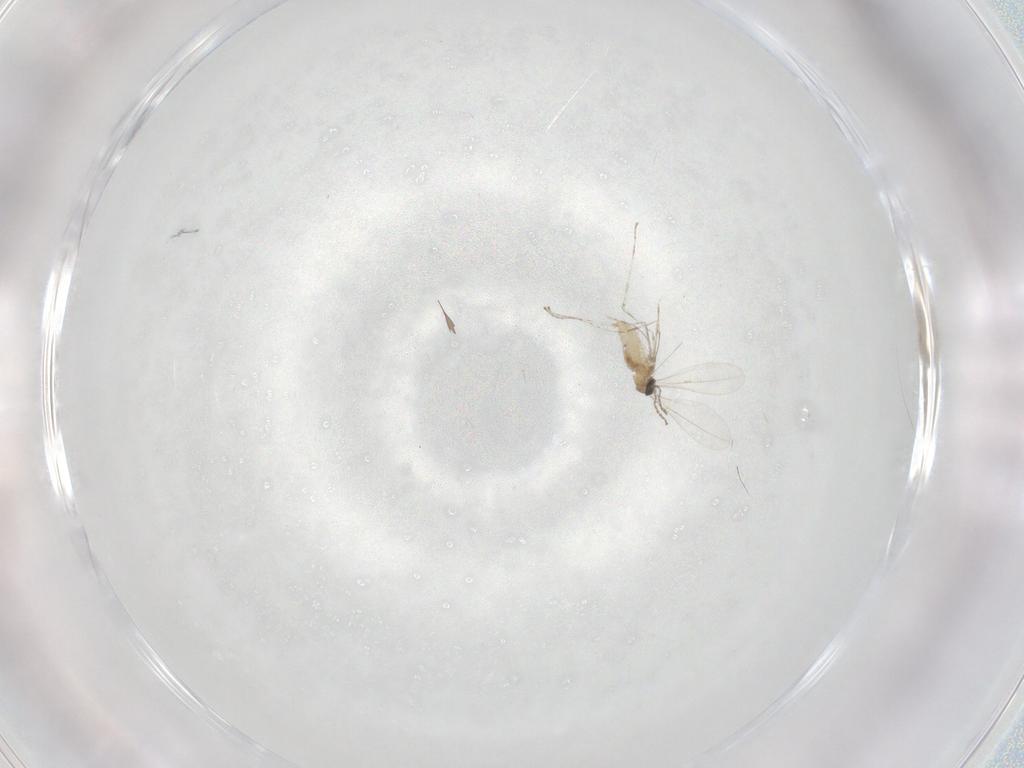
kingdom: Animalia
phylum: Arthropoda
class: Insecta
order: Diptera
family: Cecidomyiidae
